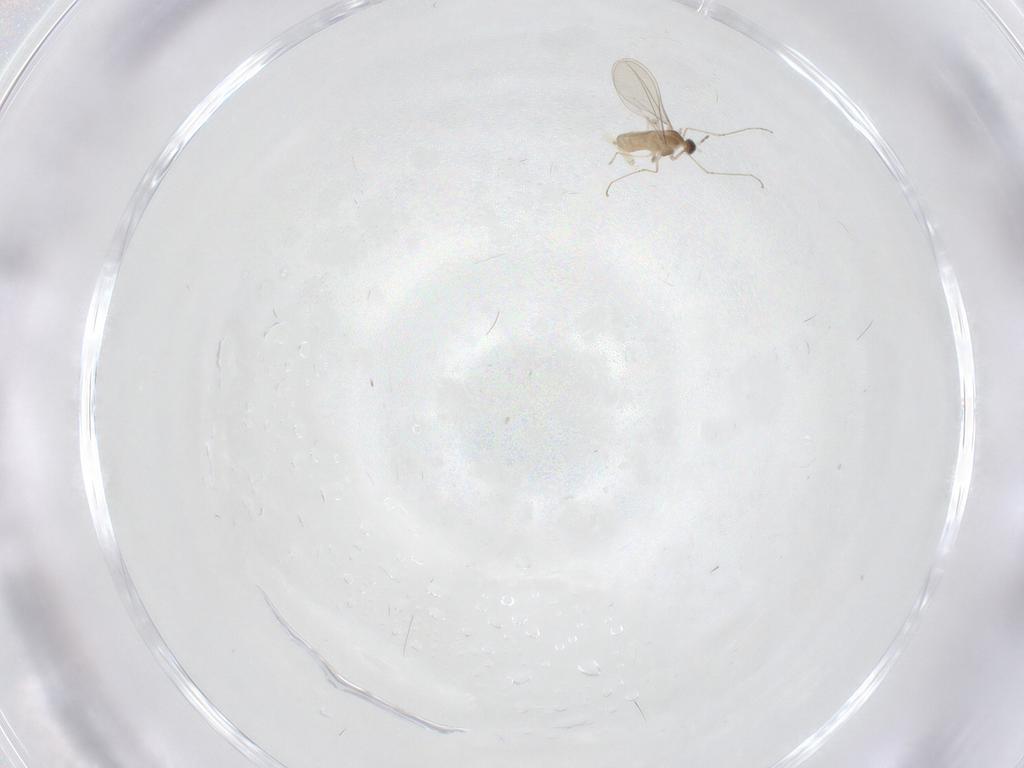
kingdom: Animalia
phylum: Arthropoda
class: Insecta
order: Diptera
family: Cecidomyiidae
